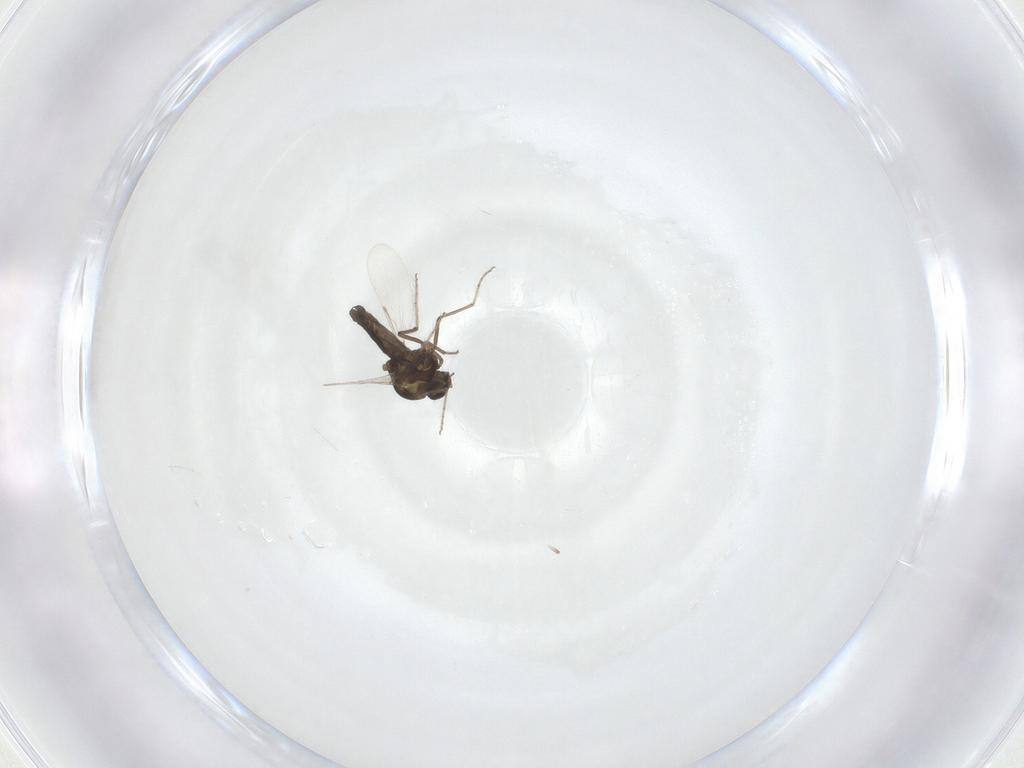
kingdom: Animalia
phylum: Arthropoda
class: Insecta
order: Diptera
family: Ceratopogonidae
